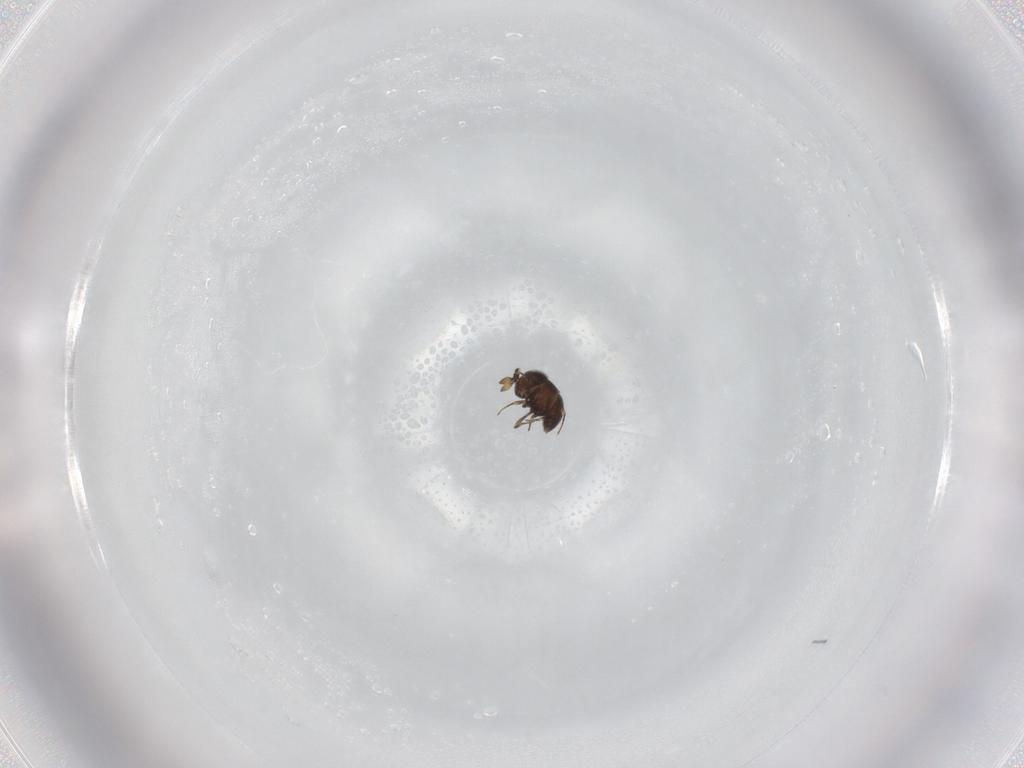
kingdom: Animalia
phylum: Arthropoda
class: Insecta
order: Hymenoptera
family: Scelionidae
